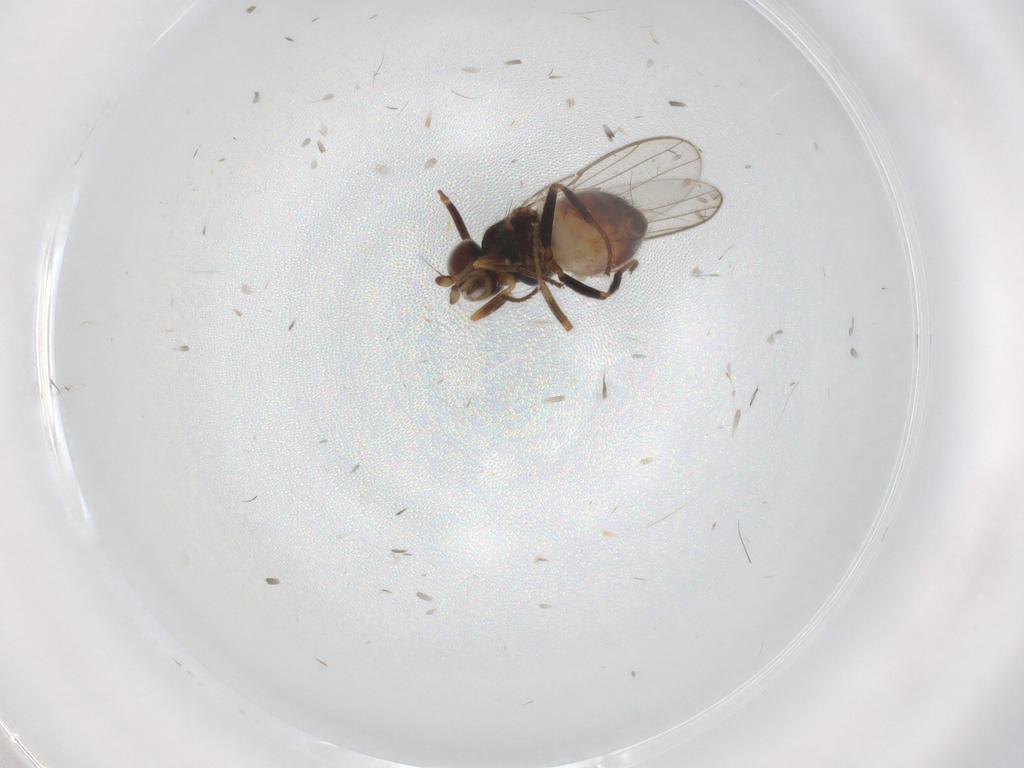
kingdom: Animalia
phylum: Arthropoda
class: Insecta
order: Diptera
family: Chloropidae
